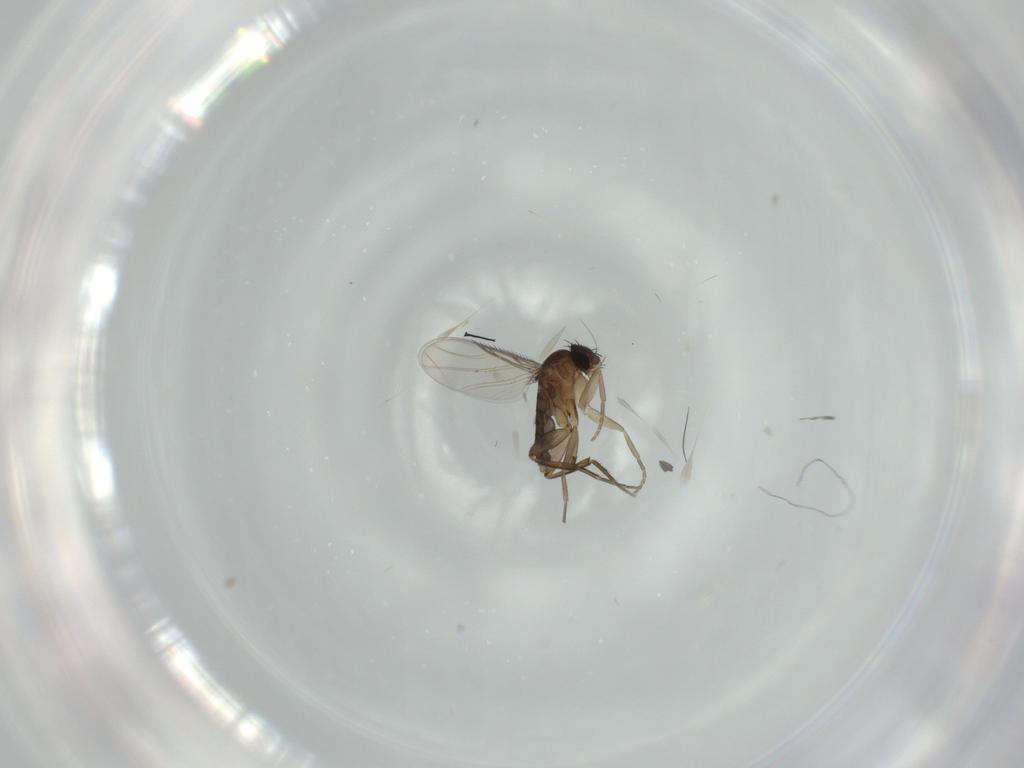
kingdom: Animalia
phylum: Arthropoda
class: Insecta
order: Diptera
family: Phoridae
